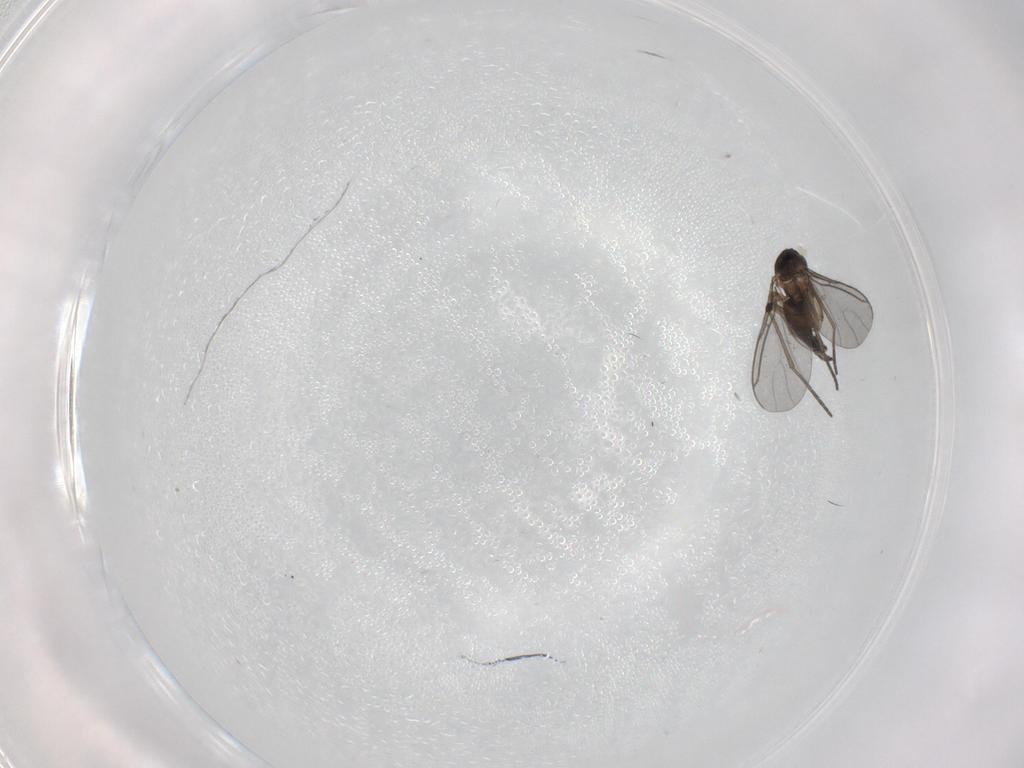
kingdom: Animalia
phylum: Arthropoda
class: Insecta
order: Diptera
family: Sciaridae
